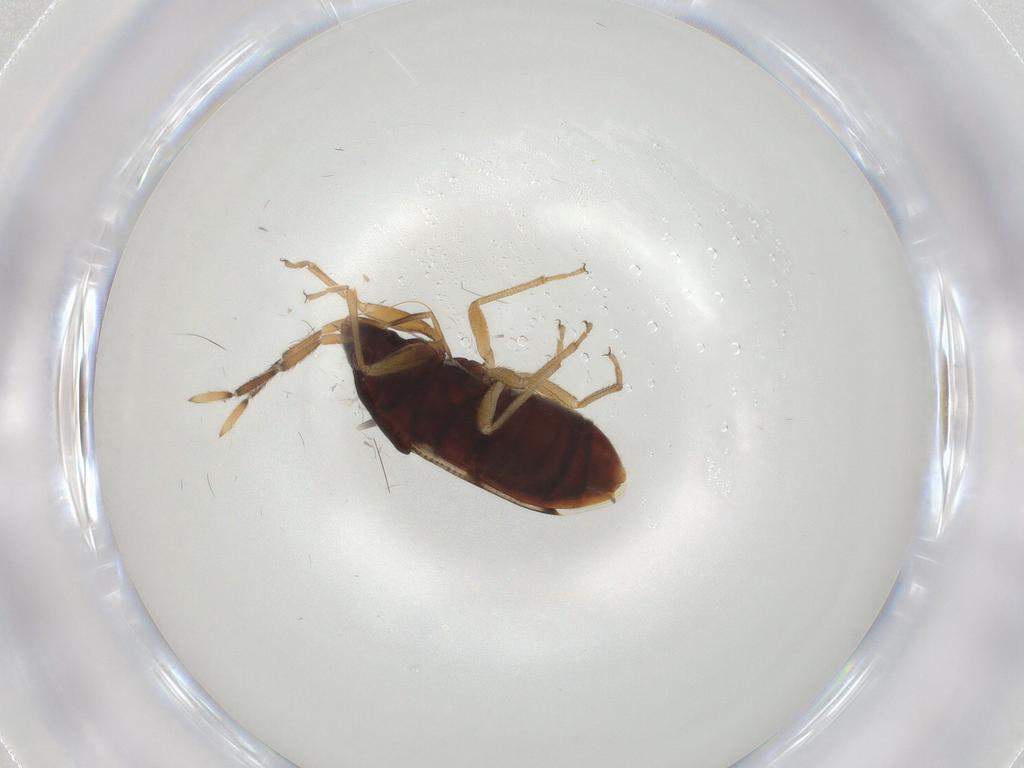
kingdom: Animalia
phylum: Arthropoda
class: Insecta
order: Hemiptera
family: Rhyparochromidae
